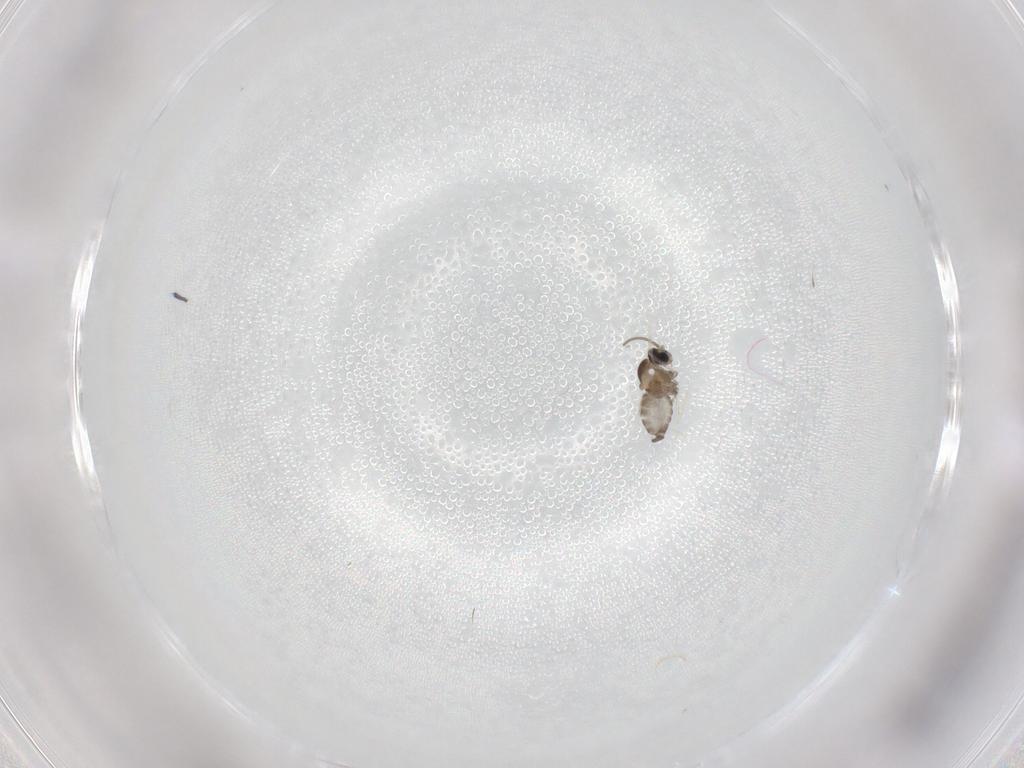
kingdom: Animalia
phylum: Arthropoda
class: Insecta
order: Diptera
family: Cecidomyiidae
